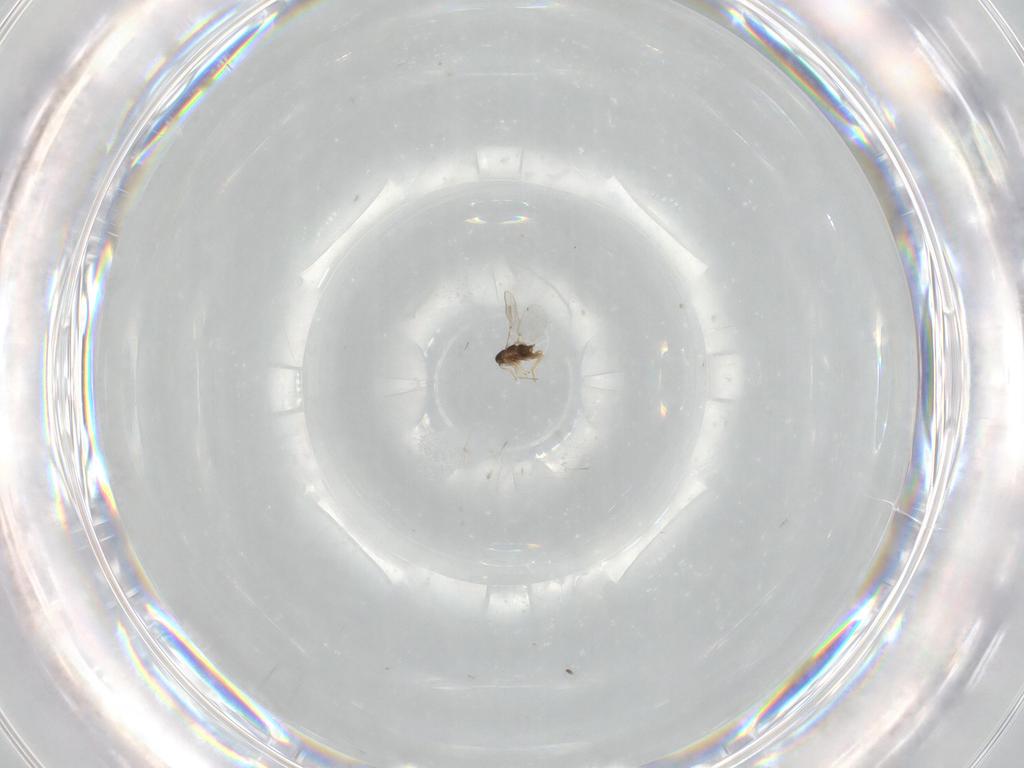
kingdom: Animalia
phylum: Arthropoda
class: Insecta
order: Hymenoptera
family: Encyrtidae
